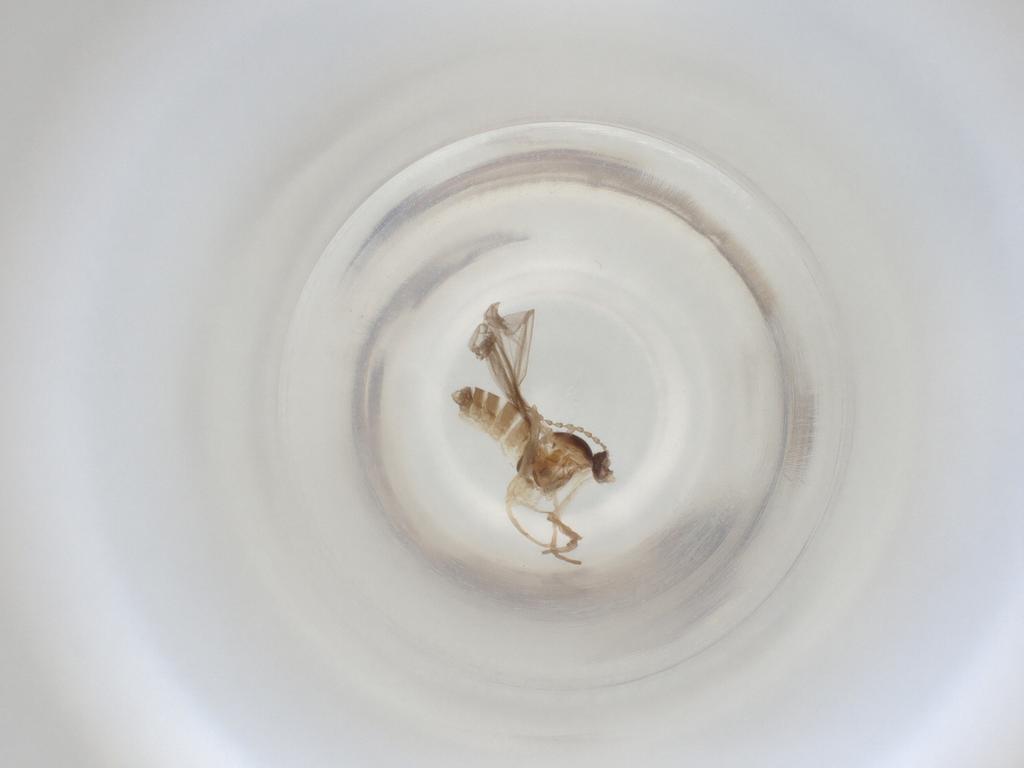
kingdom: Animalia
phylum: Arthropoda
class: Insecta
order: Diptera
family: Cecidomyiidae
